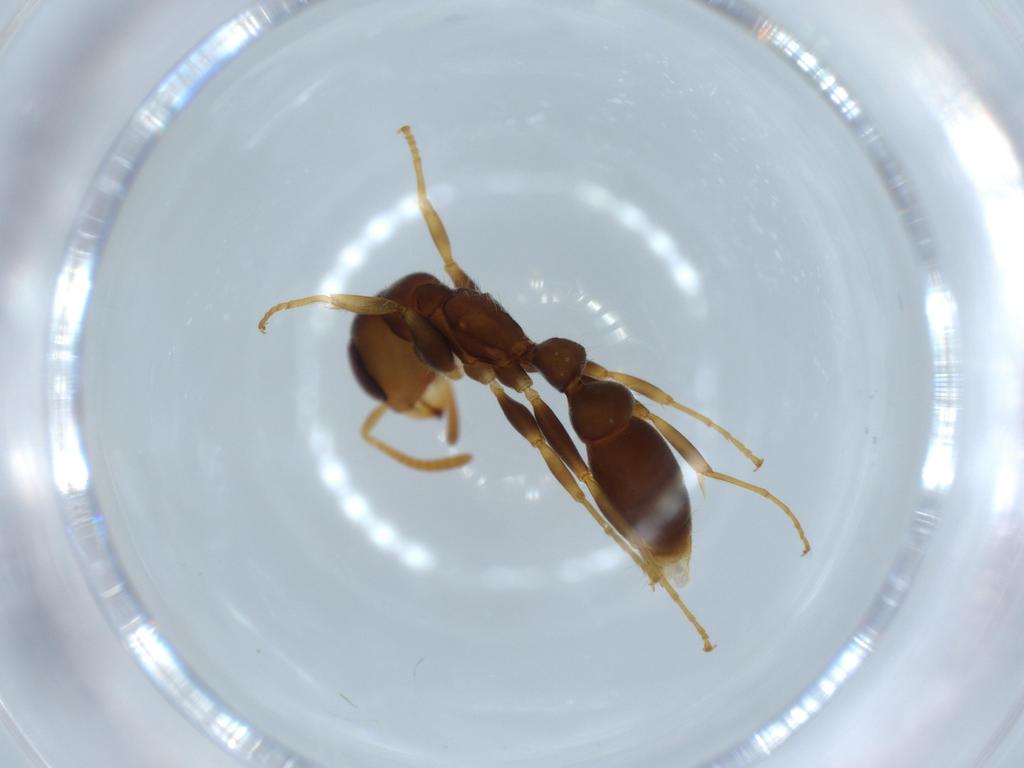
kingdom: Animalia
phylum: Arthropoda
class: Insecta
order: Hymenoptera
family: Formicidae
